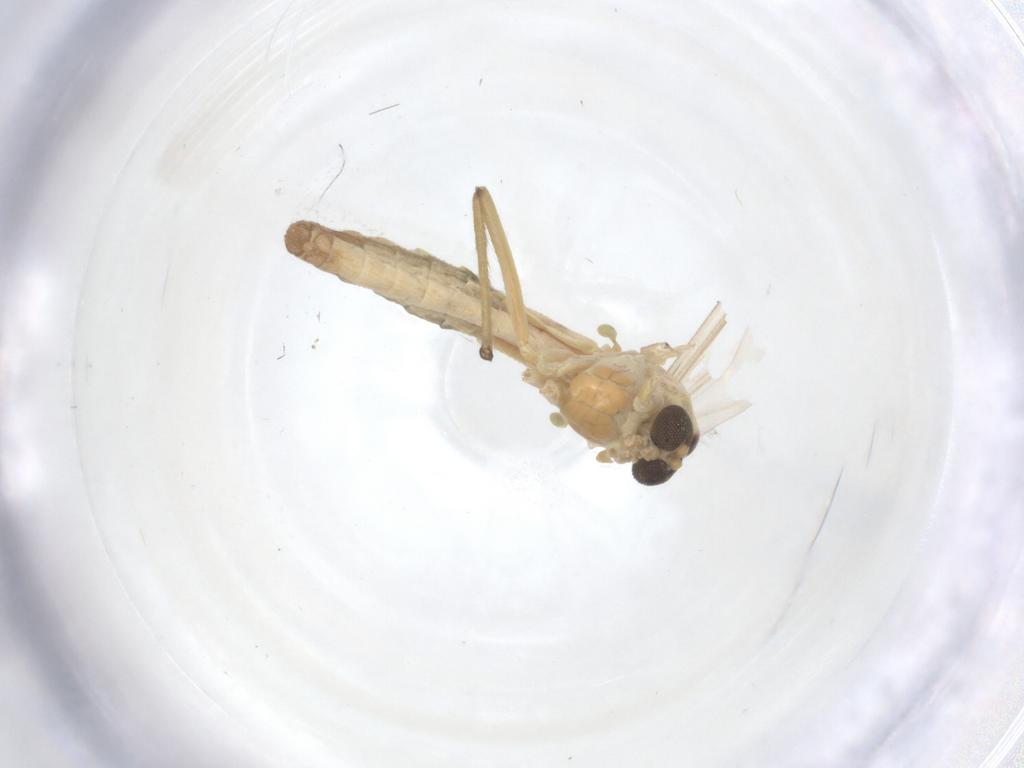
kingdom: Animalia
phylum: Arthropoda
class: Insecta
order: Diptera
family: Chironomidae
